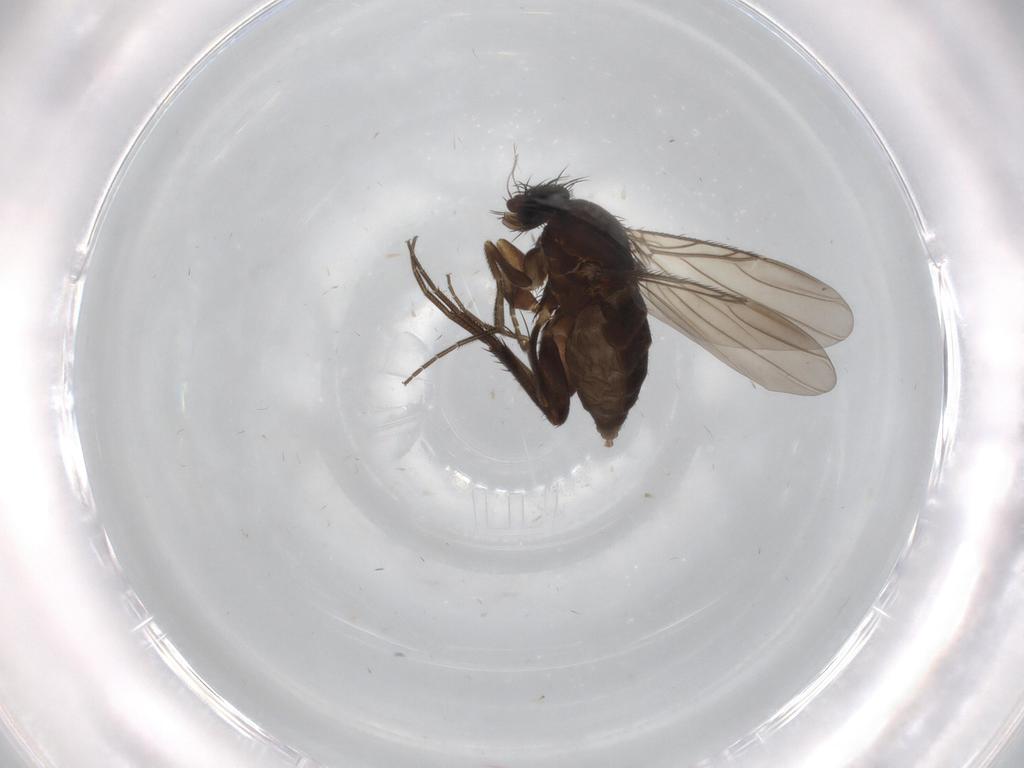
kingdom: Animalia
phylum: Arthropoda
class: Insecta
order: Diptera
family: Phoridae
